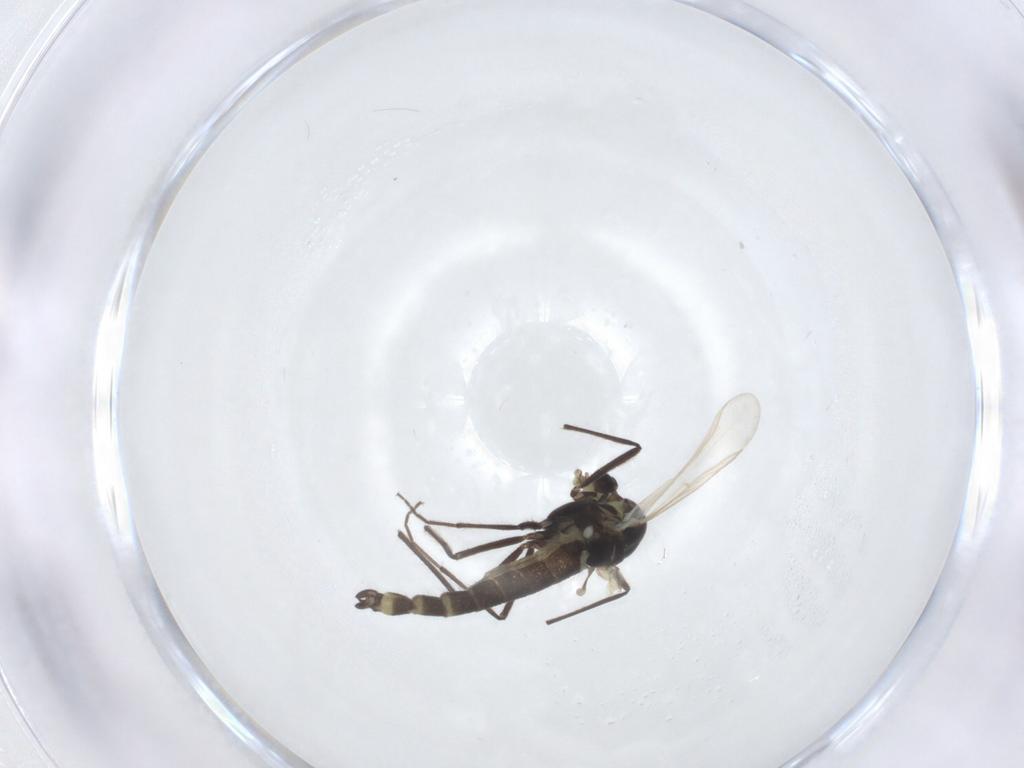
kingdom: Animalia
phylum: Arthropoda
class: Insecta
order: Diptera
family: Chironomidae
